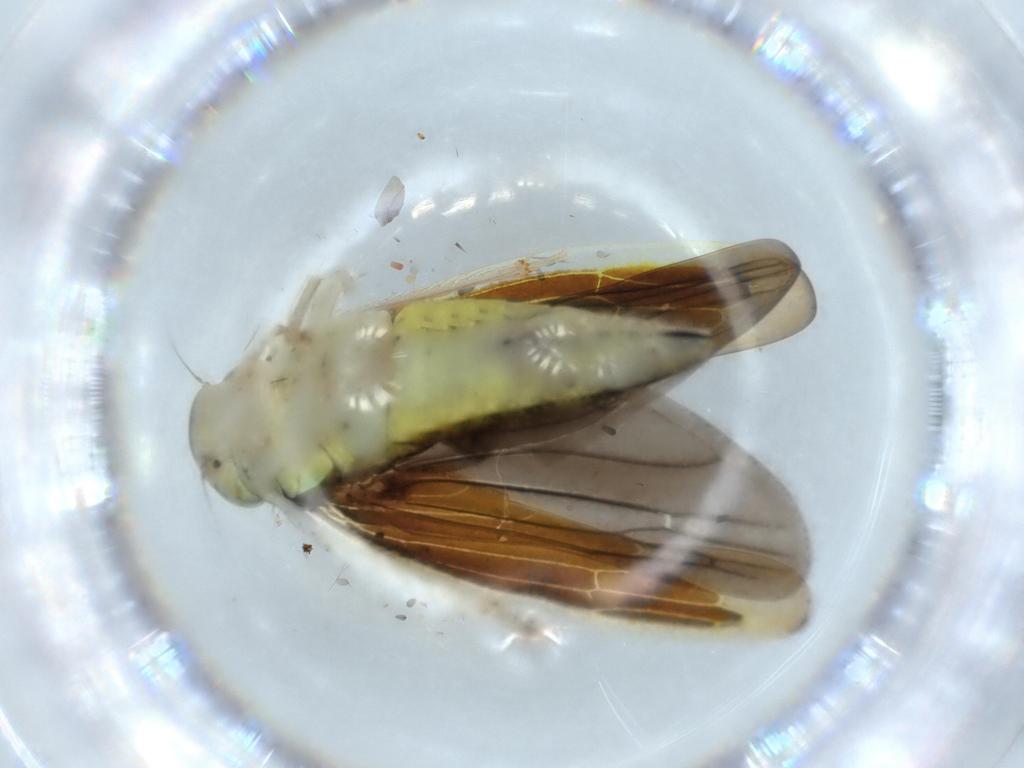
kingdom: Animalia
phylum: Arthropoda
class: Insecta
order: Hemiptera
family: Cicadellidae
